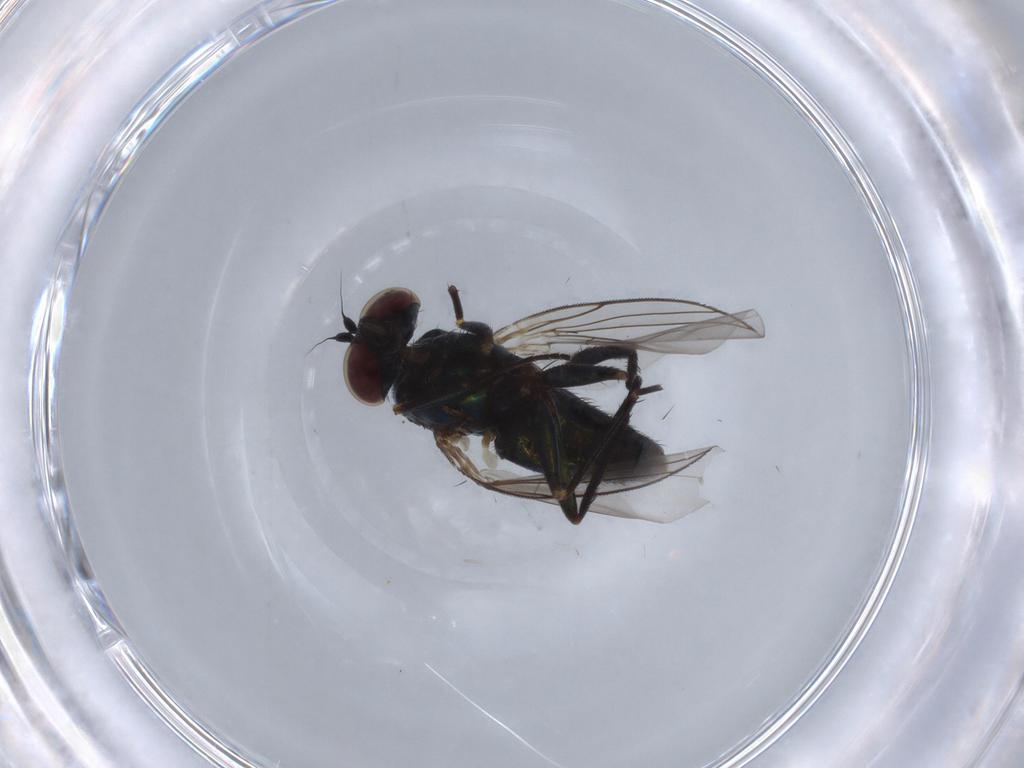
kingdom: Animalia
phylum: Arthropoda
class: Insecta
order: Diptera
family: Dolichopodidae
